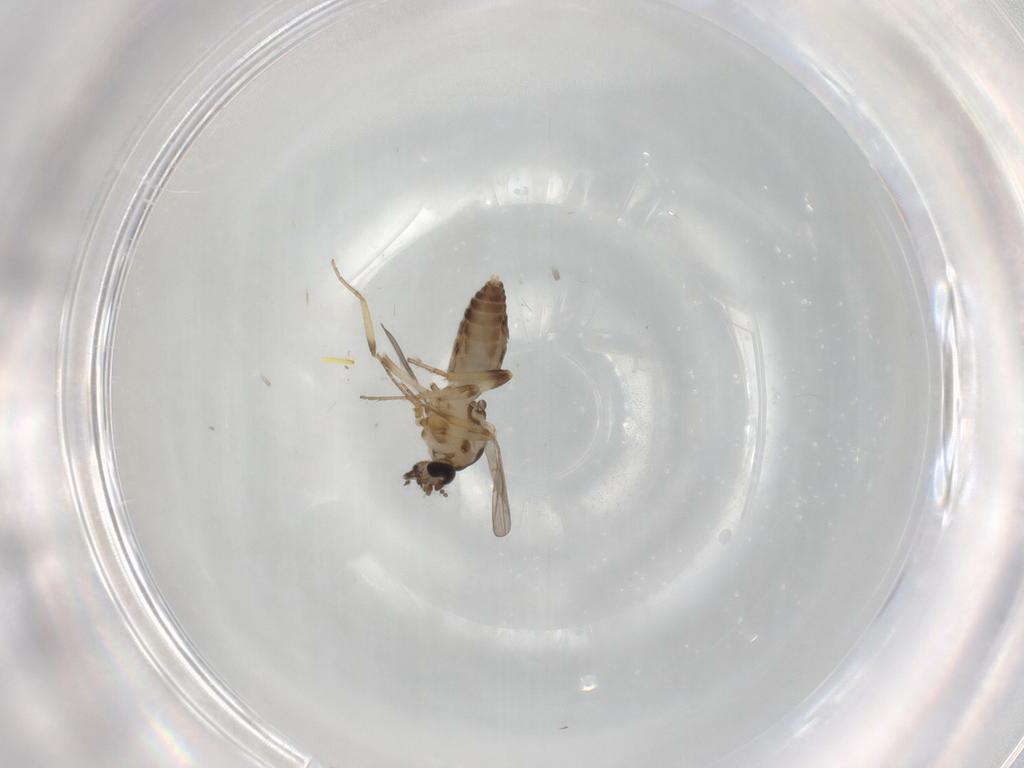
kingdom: Animalia
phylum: Arthropoda
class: Insecta
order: Diptera
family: Ceratopogonidae
